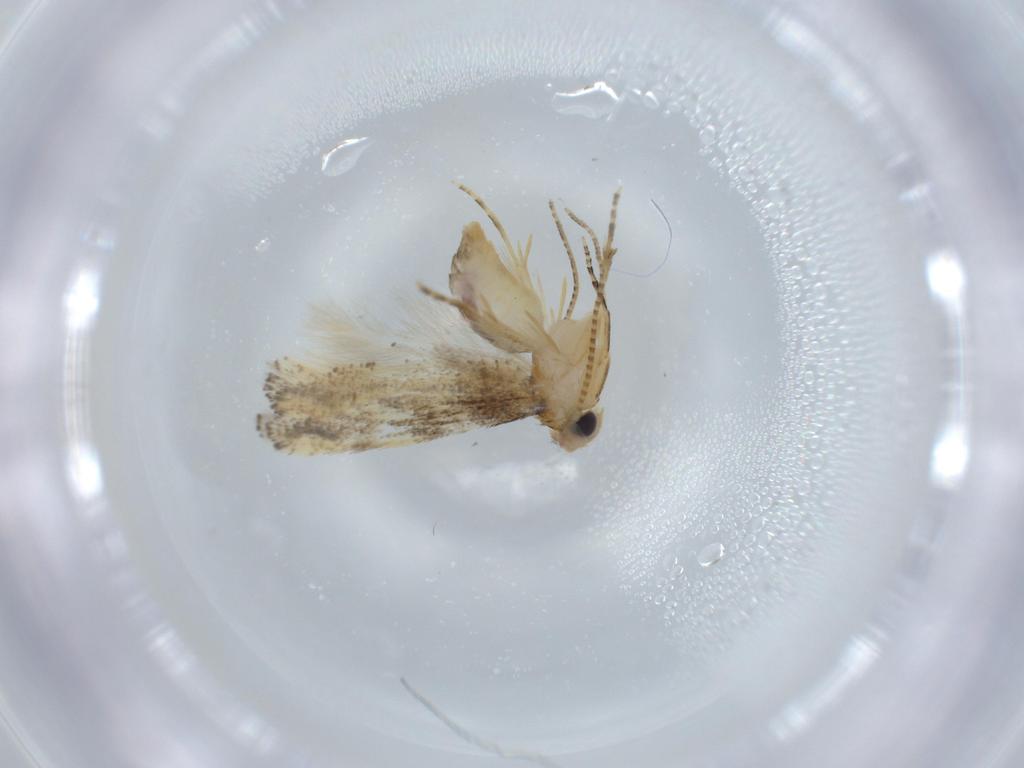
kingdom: Animalia
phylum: Arthropoda
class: Insecta
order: Lepidoptera
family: Bucculatricidae
